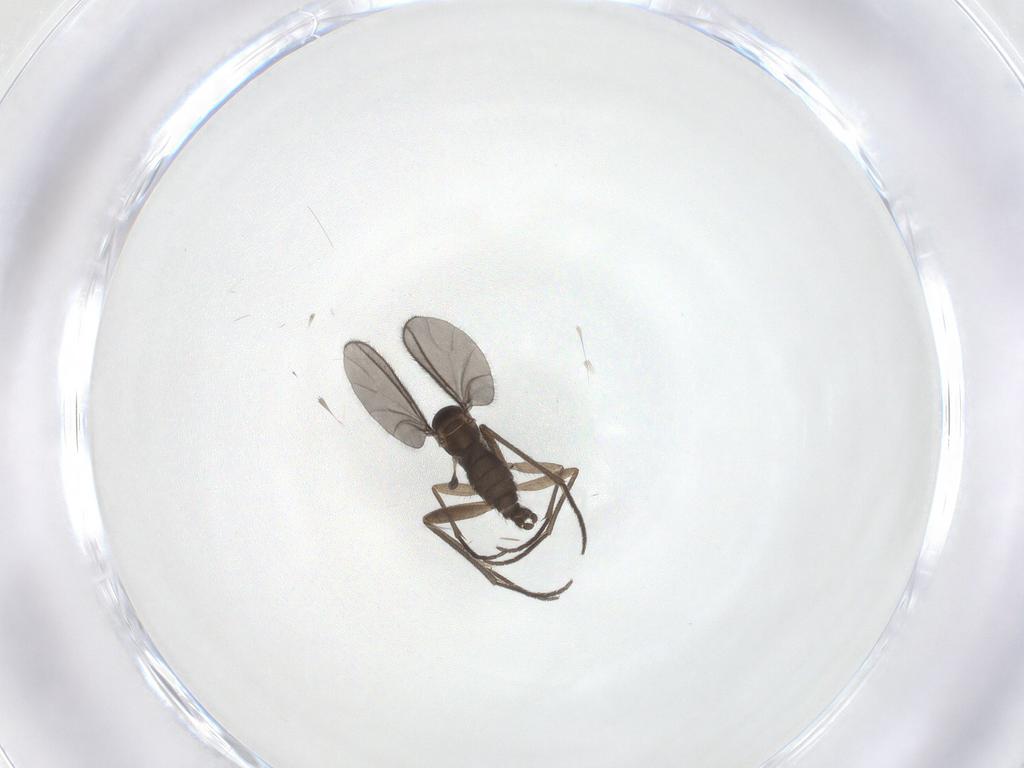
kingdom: Animalia
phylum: Arthropoda
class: Insecta
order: Diptera
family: Sciaridae
